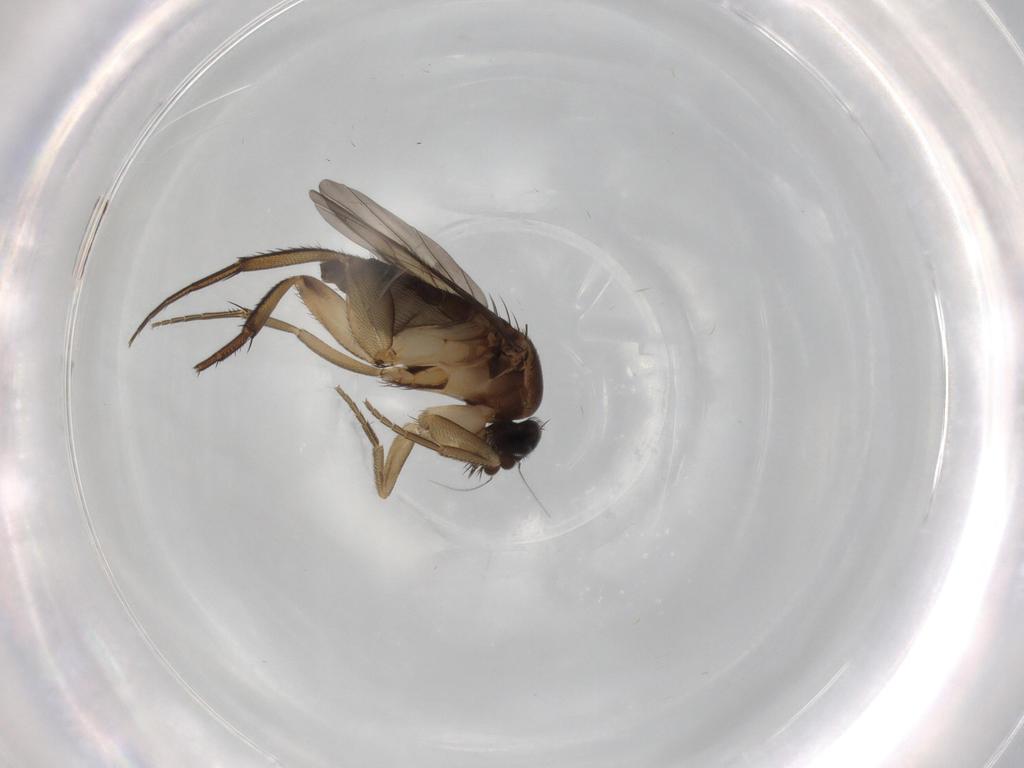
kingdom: Animalia
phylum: Arthropoda
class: Insecta
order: Diptera
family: Phoridae
